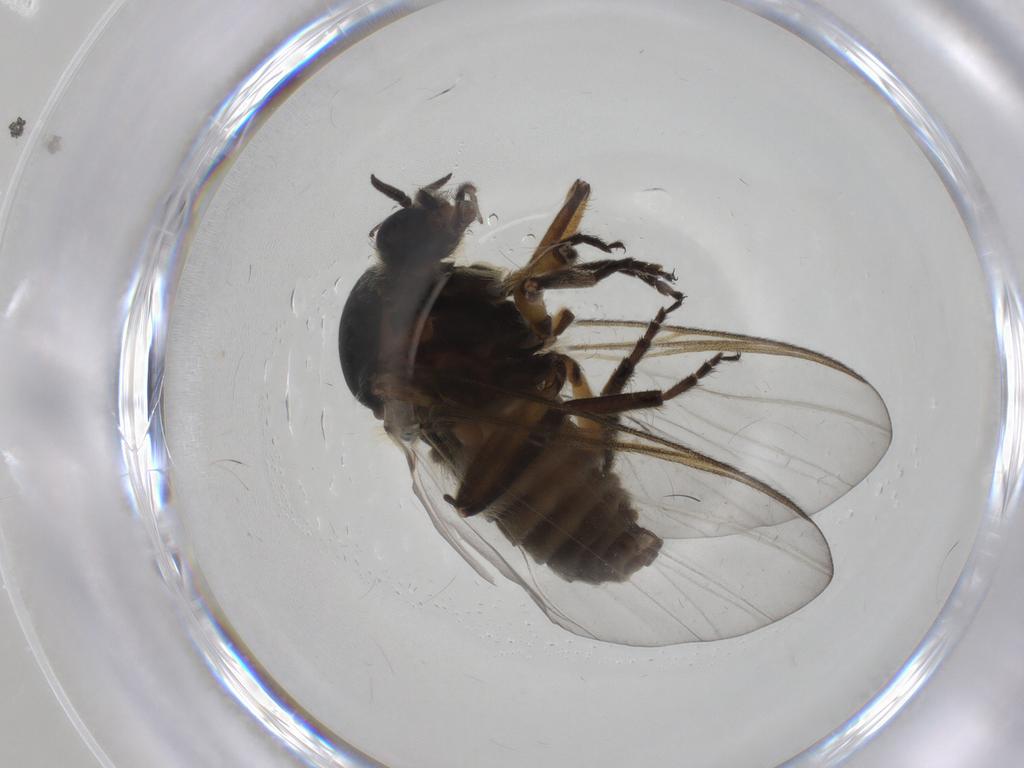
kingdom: Animalia
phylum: Arthropoda
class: Insecta
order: Diptera
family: Simuliidae
